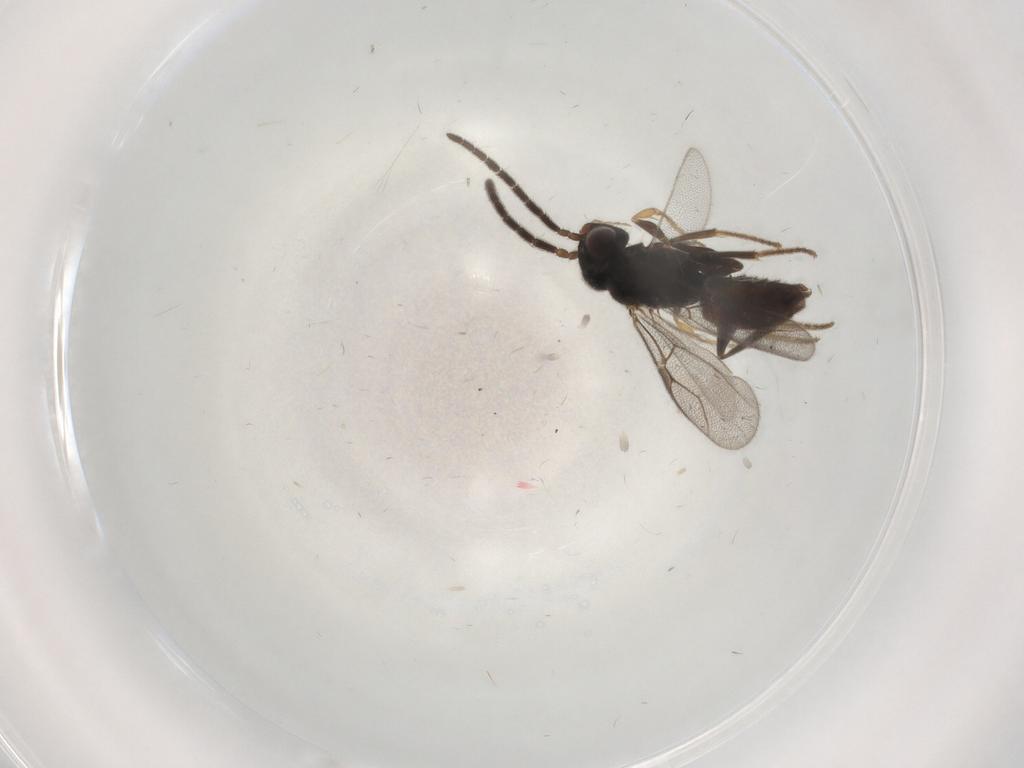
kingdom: Animalia
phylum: Arthropoda
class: Insecta
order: Hymenoptera
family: Dryinidae
